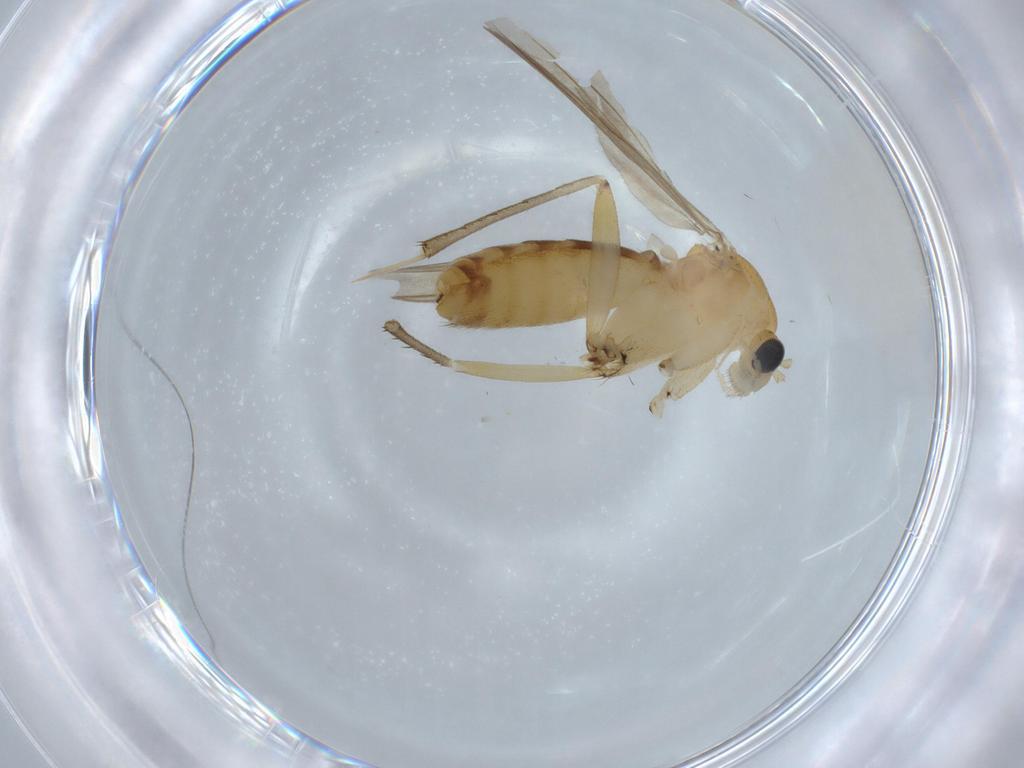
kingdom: Animalia
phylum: Arthropoda
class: Insecta
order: Diptera
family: Mycetophilidae
